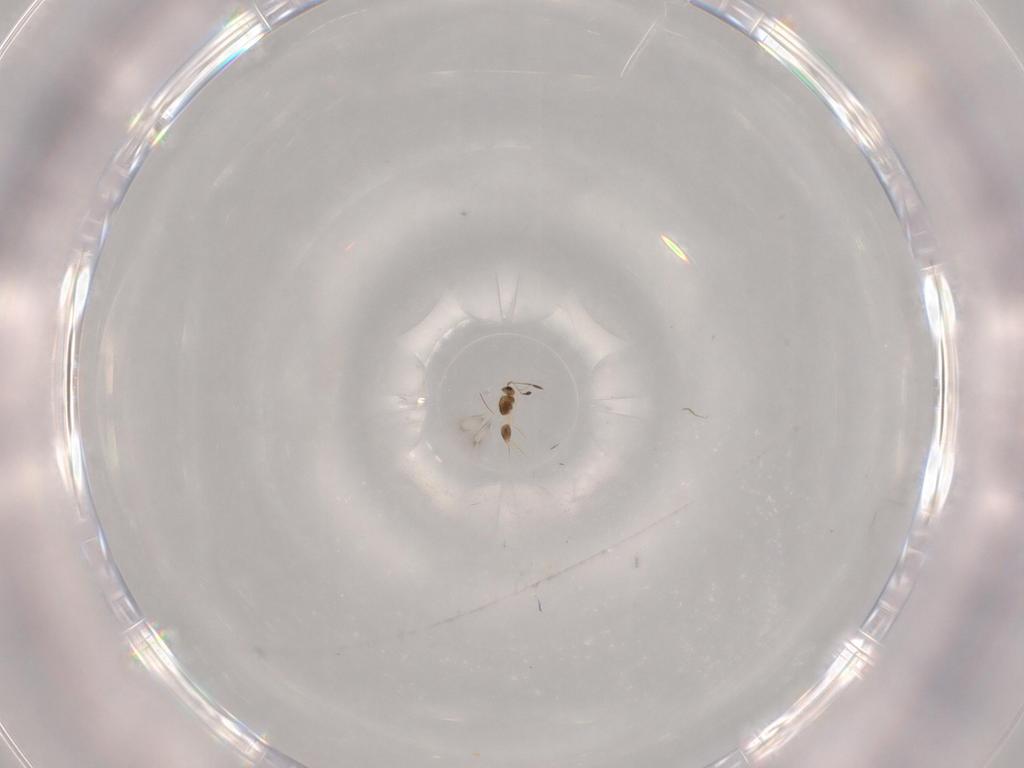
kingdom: Animalia
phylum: Arthropoda
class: Insecta
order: Hymenoptera
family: Mymarommatidae
